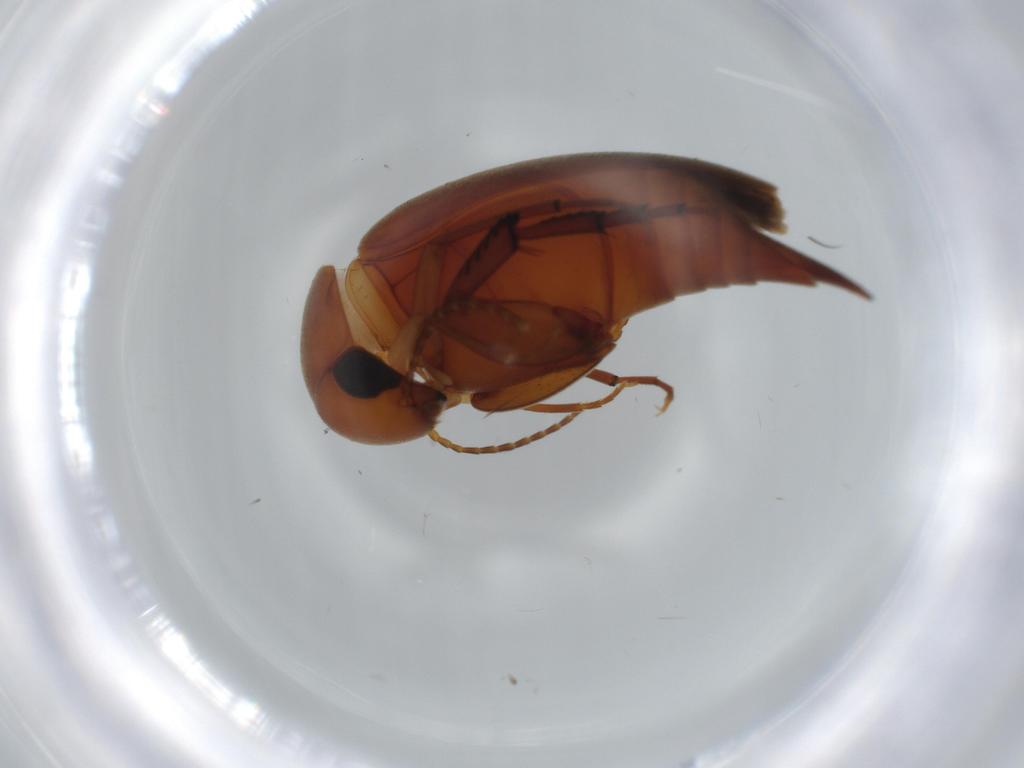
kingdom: Animalia
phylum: Arthropoda
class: Insecta
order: Coleoptera
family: Mordellidae
